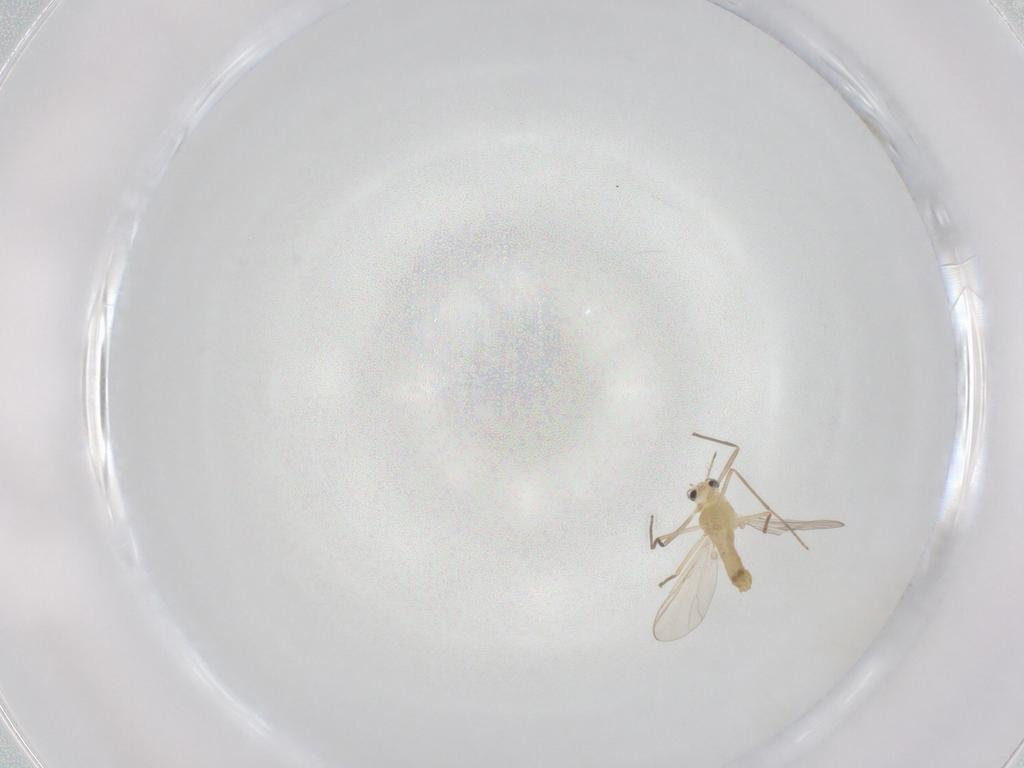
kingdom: Animalia
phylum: Arthropoda
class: Insecta
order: Diptera
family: Chironomidae
